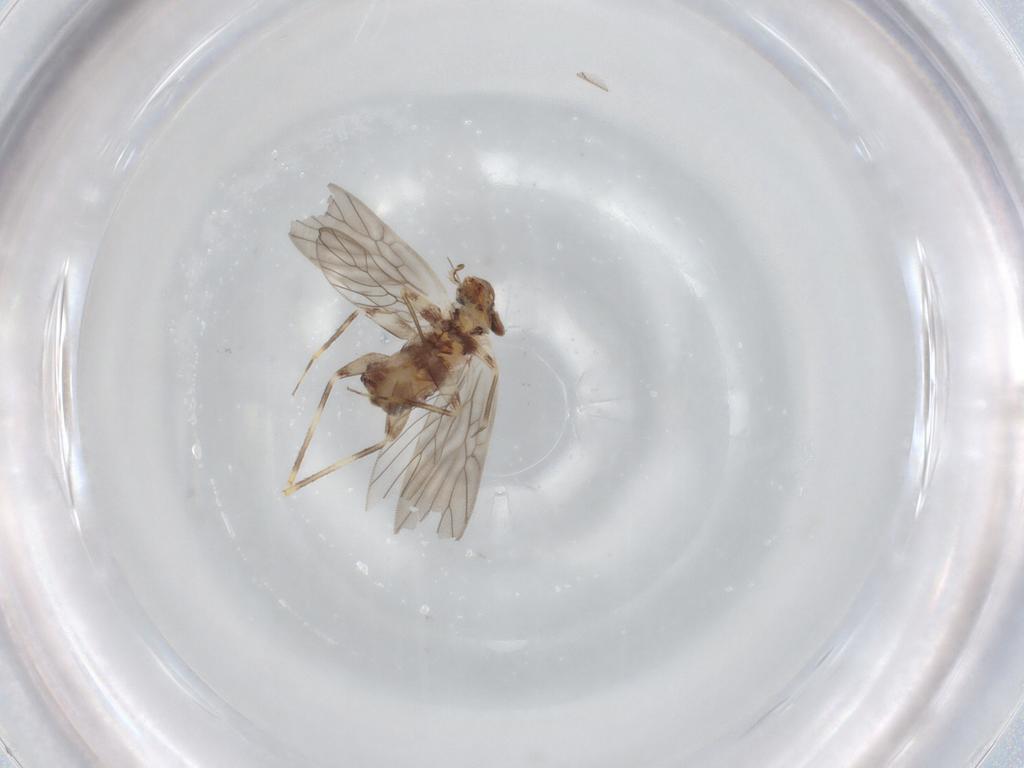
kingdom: Animalia
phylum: Arthropoda
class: Insecta
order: Psocodea
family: Lepidopsocidae
